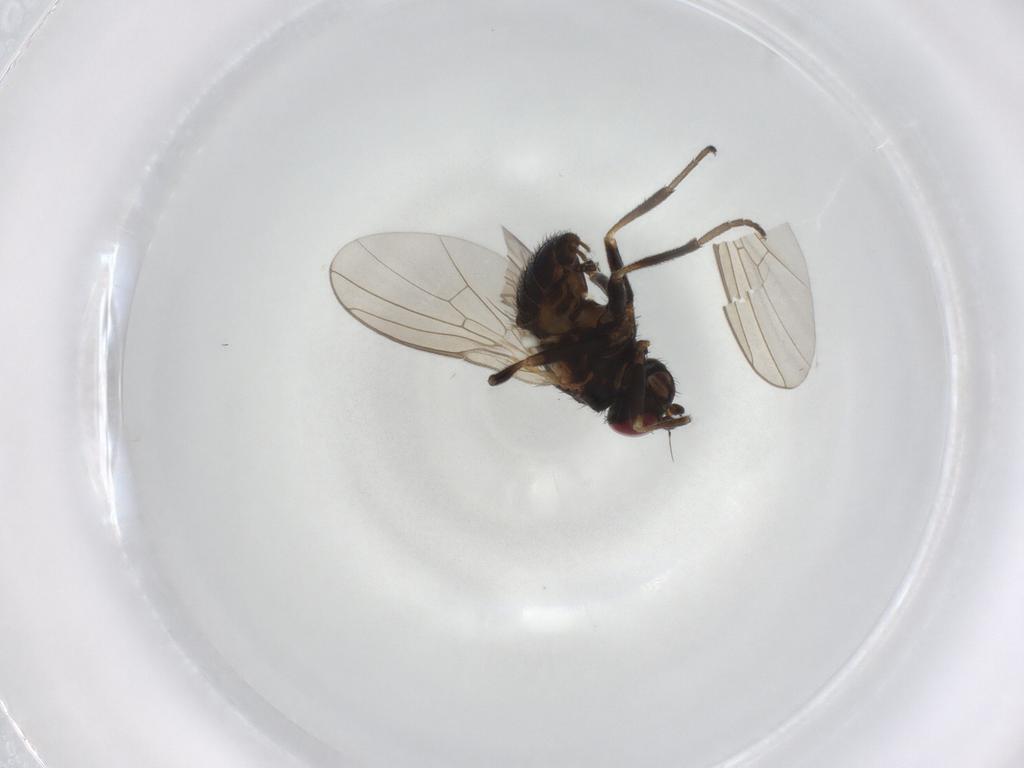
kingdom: Animalia
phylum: Arthropoda
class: Insecta
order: Diptera
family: Agromyzidae
